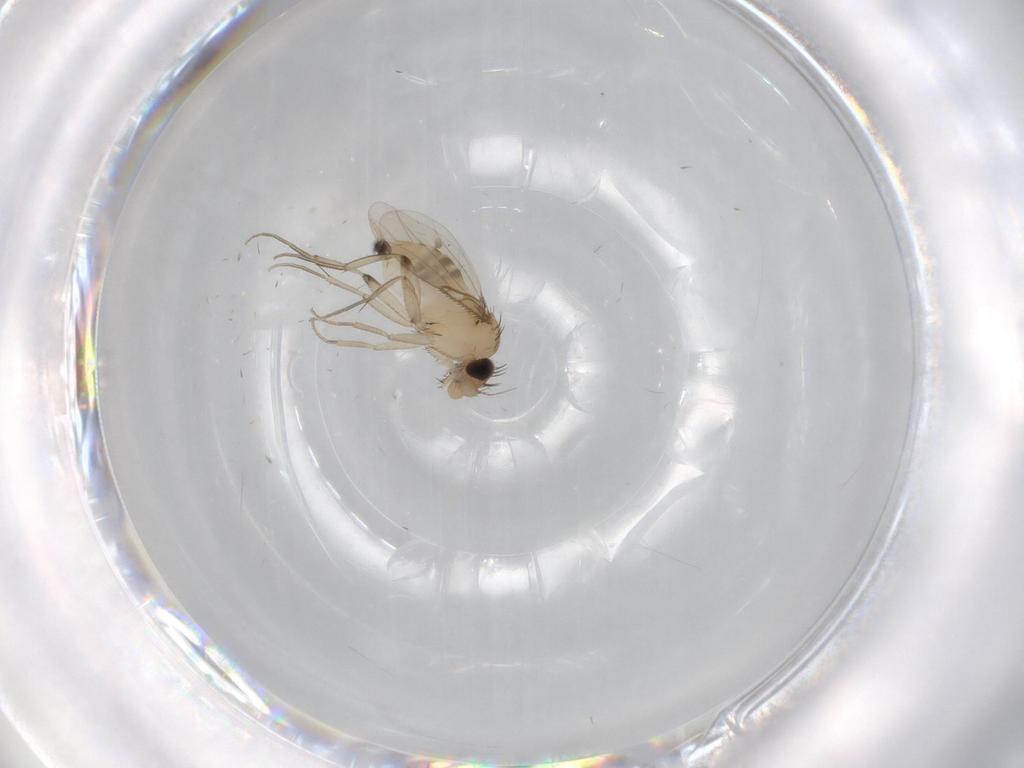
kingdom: Animalia
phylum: Arthropoda
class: Insecta
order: Diptera
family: Phoridae
